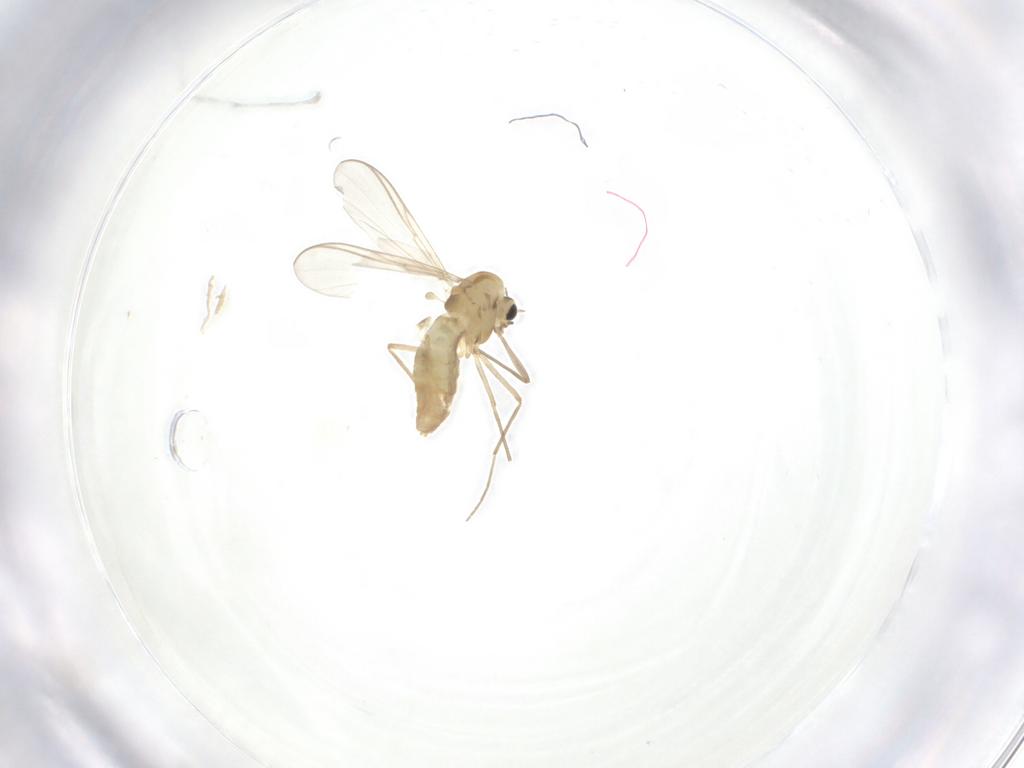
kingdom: Animalia
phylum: Arthropoda
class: Insecta
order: Diptera
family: Chironomidae
